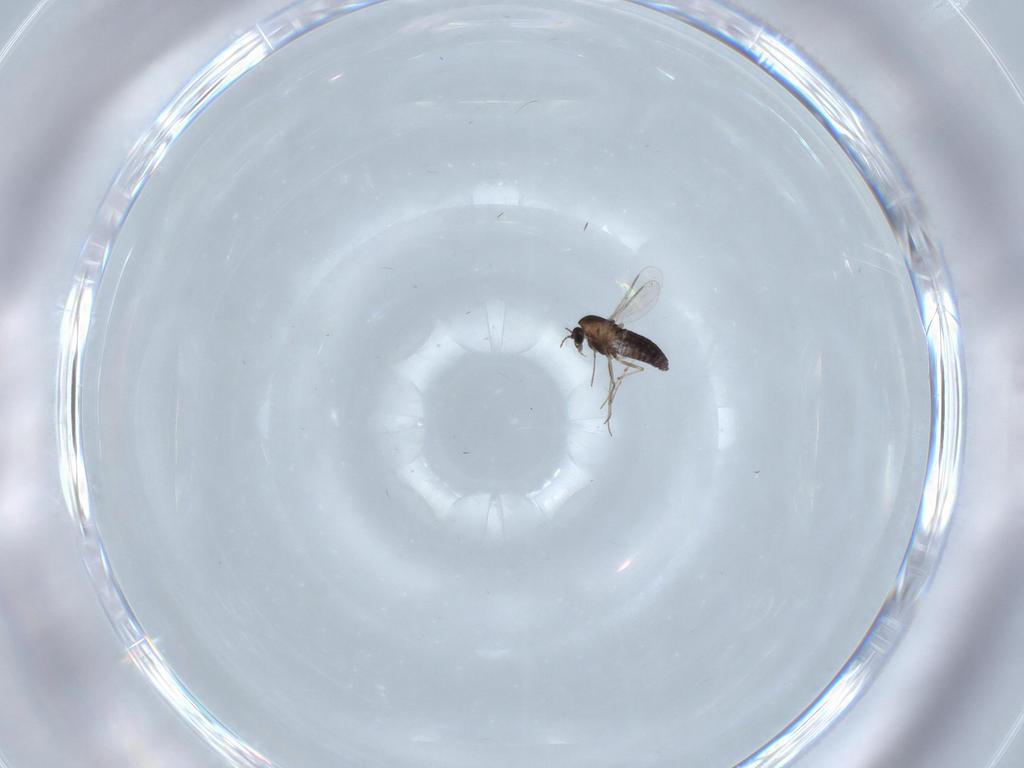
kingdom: Animalia
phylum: Arthropoda
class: Insecta
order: Diptera
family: Chironomidae
